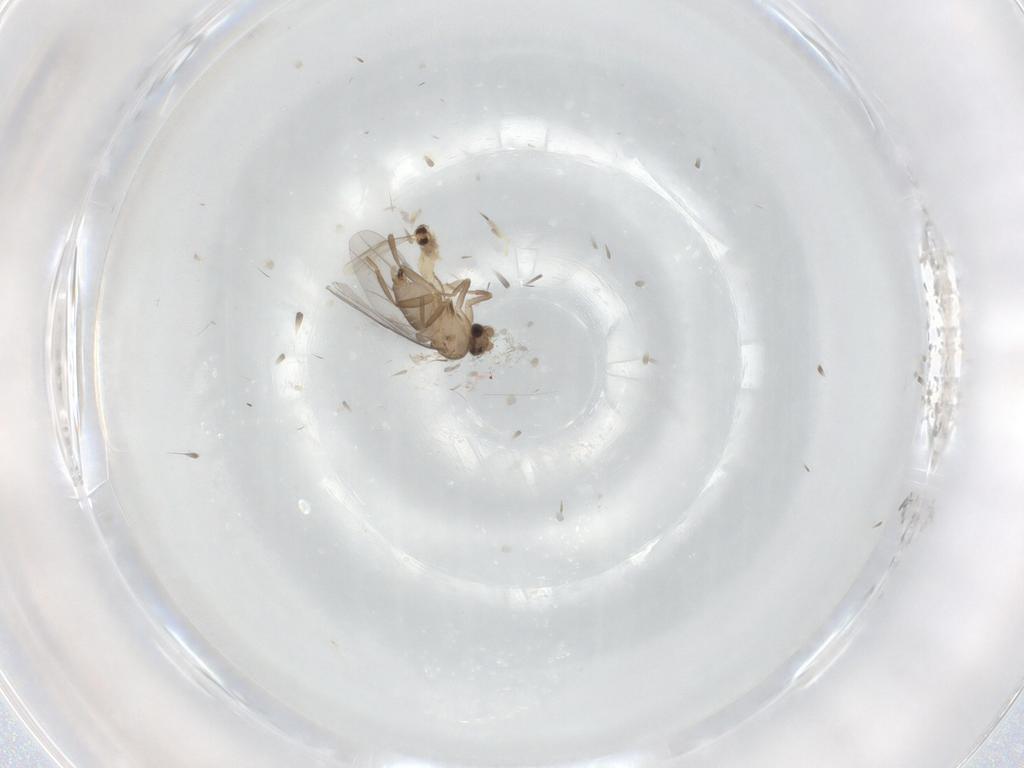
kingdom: Animalia
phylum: Arthropoda
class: Insecta
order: Diptera
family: Cecidomyiidae
